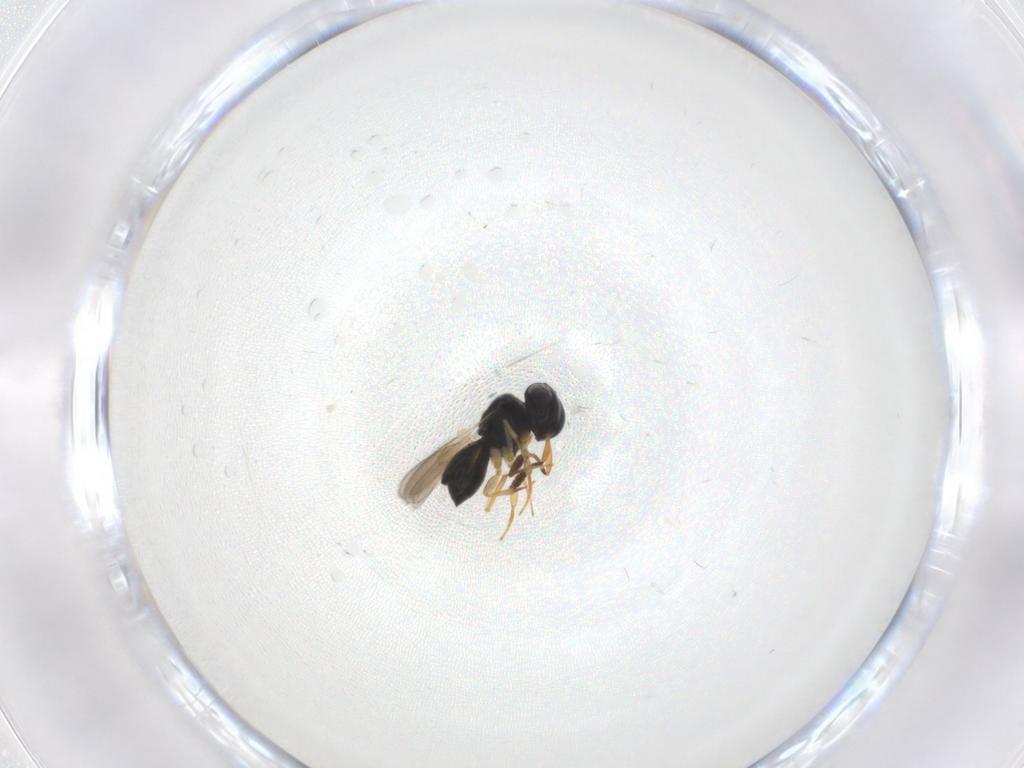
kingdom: Animalia
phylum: Arthropoda
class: Insecta
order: Hymenoptera
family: Scelionidae
